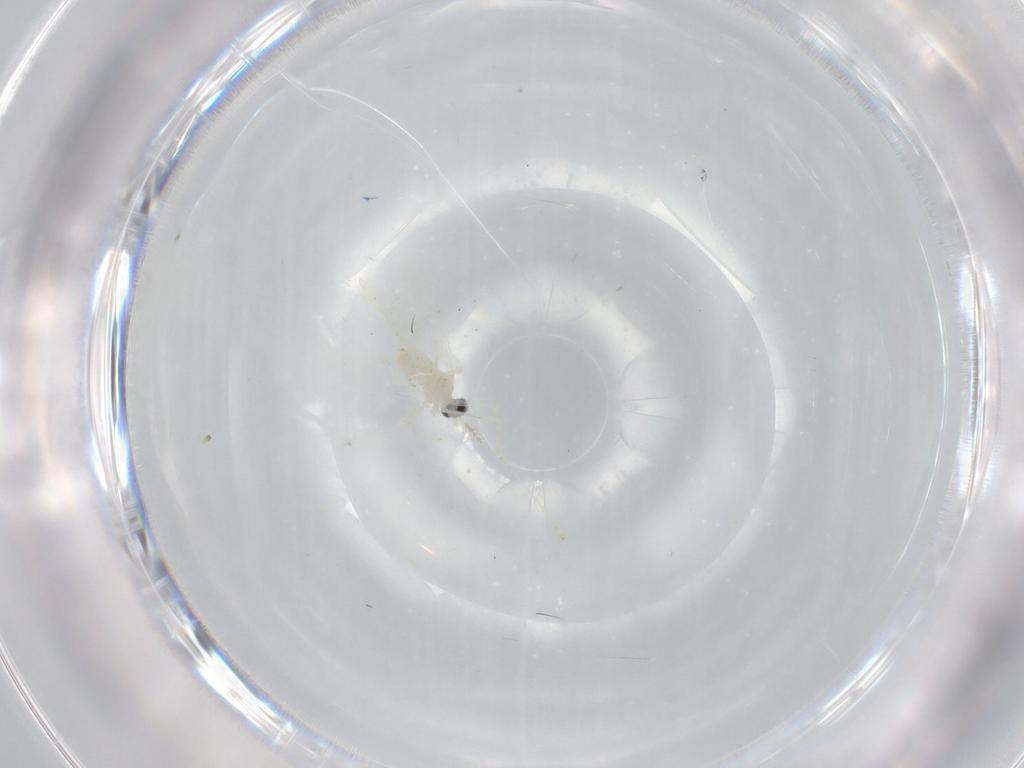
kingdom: Animalia
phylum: Arthropoda
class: Insecta
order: Diptera
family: Cecidomyiidae
